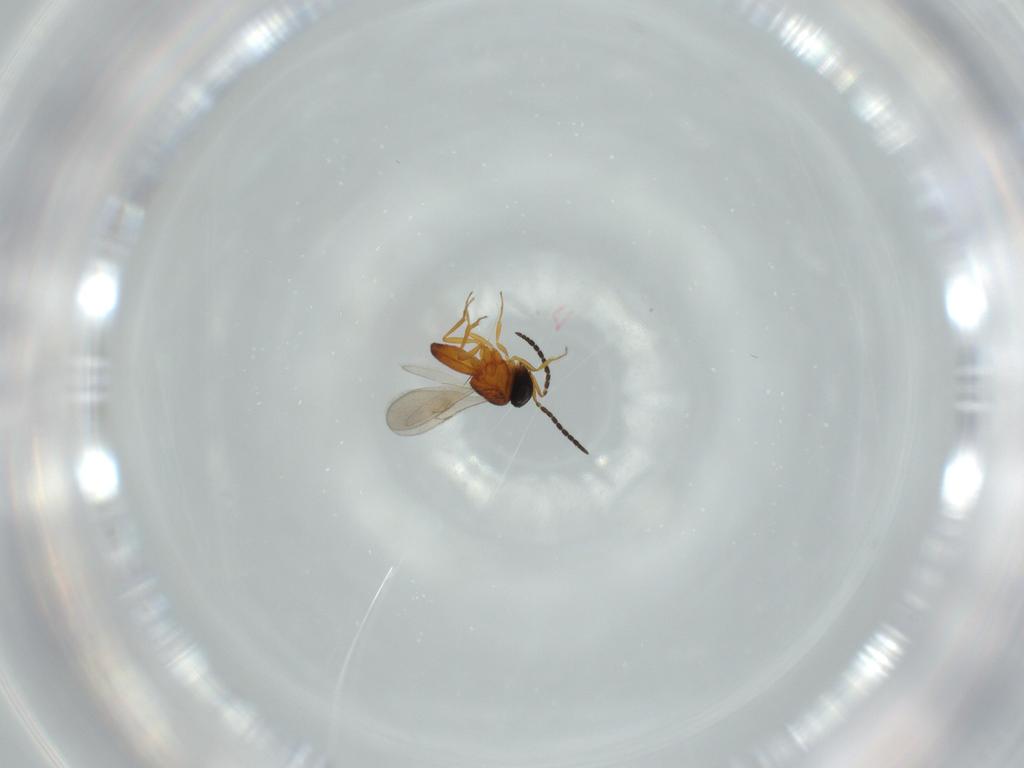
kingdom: Animalia
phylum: Arthropoda
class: Insecta
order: Hymenoptera
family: Scelionidae
